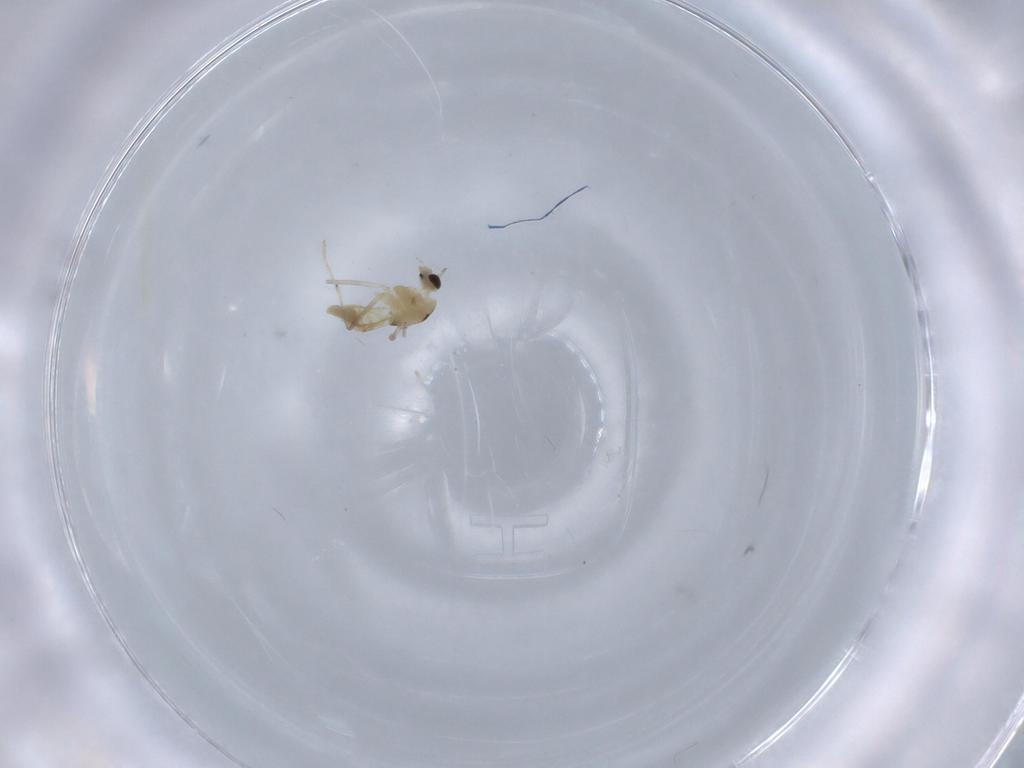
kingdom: Animalia
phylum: Arthropoda
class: Insecta
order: Diptera
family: Chironomidae
